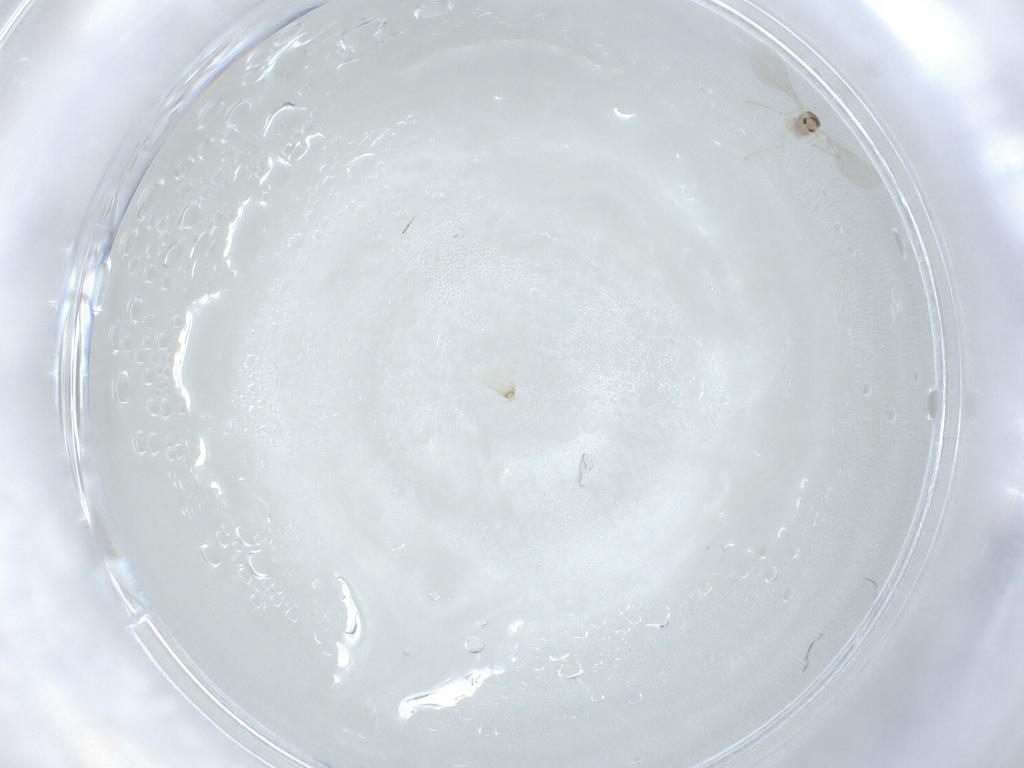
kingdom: Animalia
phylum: Arthropoda
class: Insecta
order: Diptera
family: Cecidomyiidae
